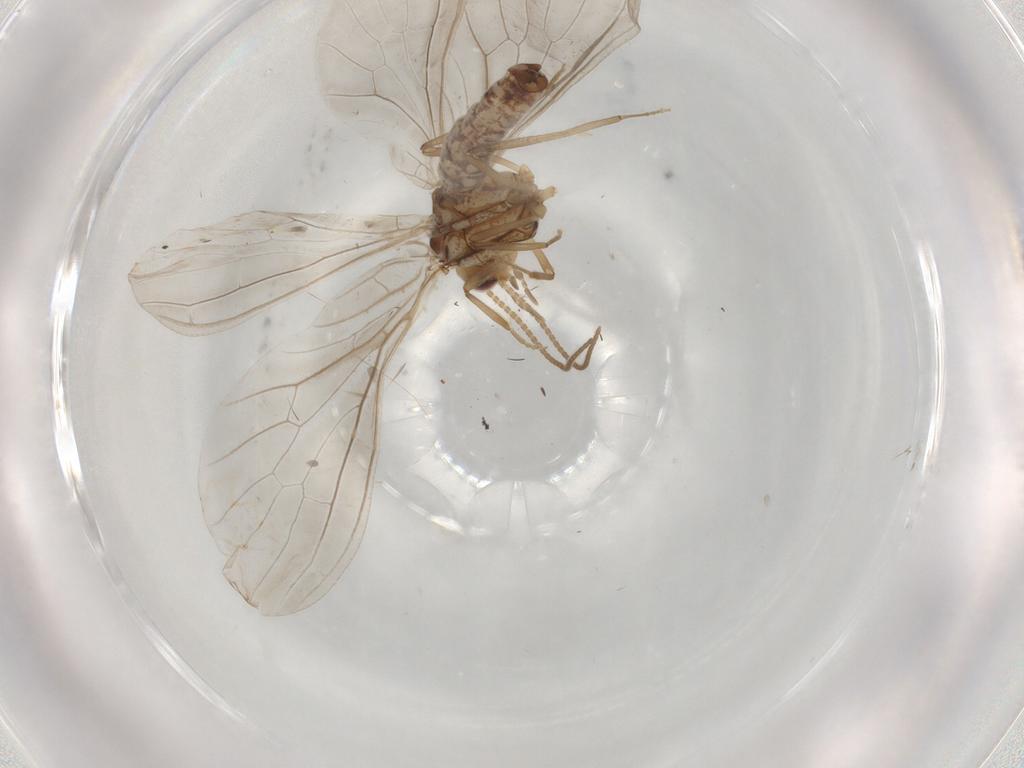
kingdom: Animalia
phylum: Arthropoda
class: Insecta
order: Neuroptera
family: Coniopterygidae
